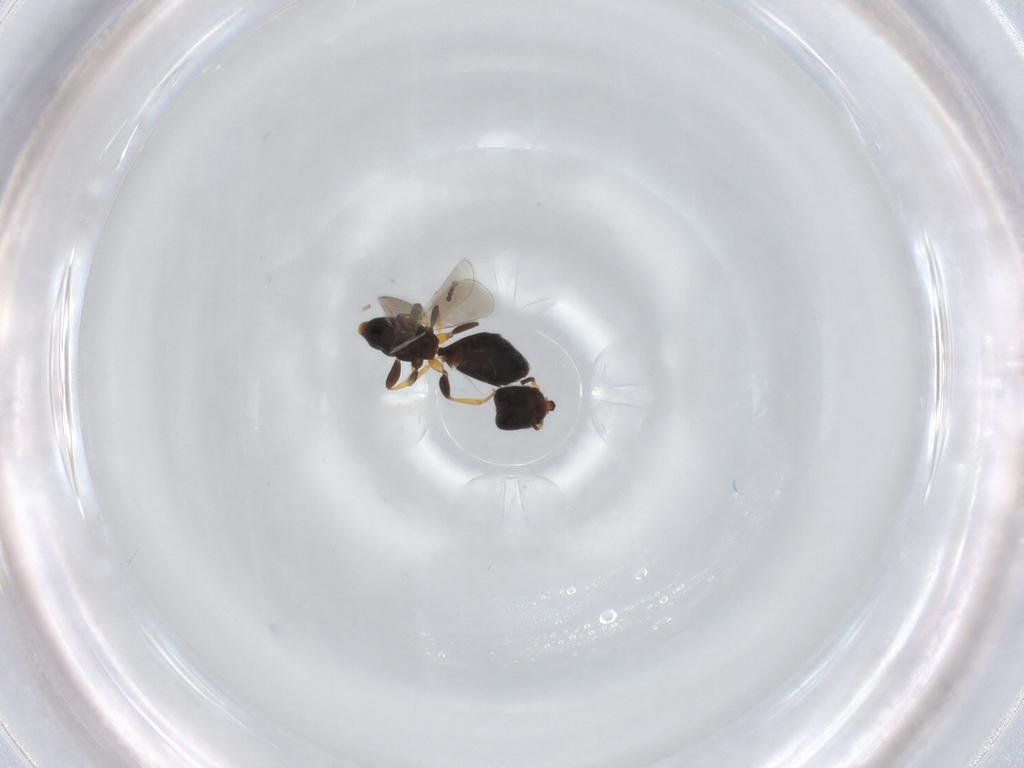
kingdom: Animalia
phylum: Arthropoda
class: Insecta
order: Hymenoptera
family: Bethylidae
